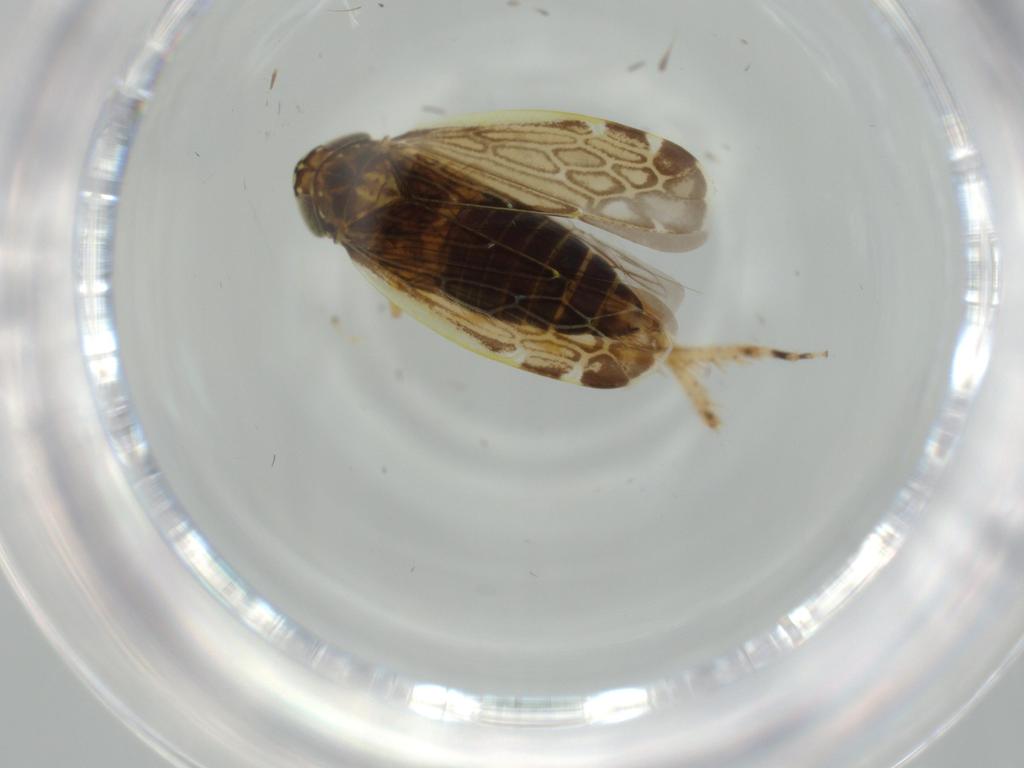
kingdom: Animalia
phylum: Arthropoda
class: Insecta
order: Hemiptera
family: Cicadellidae
